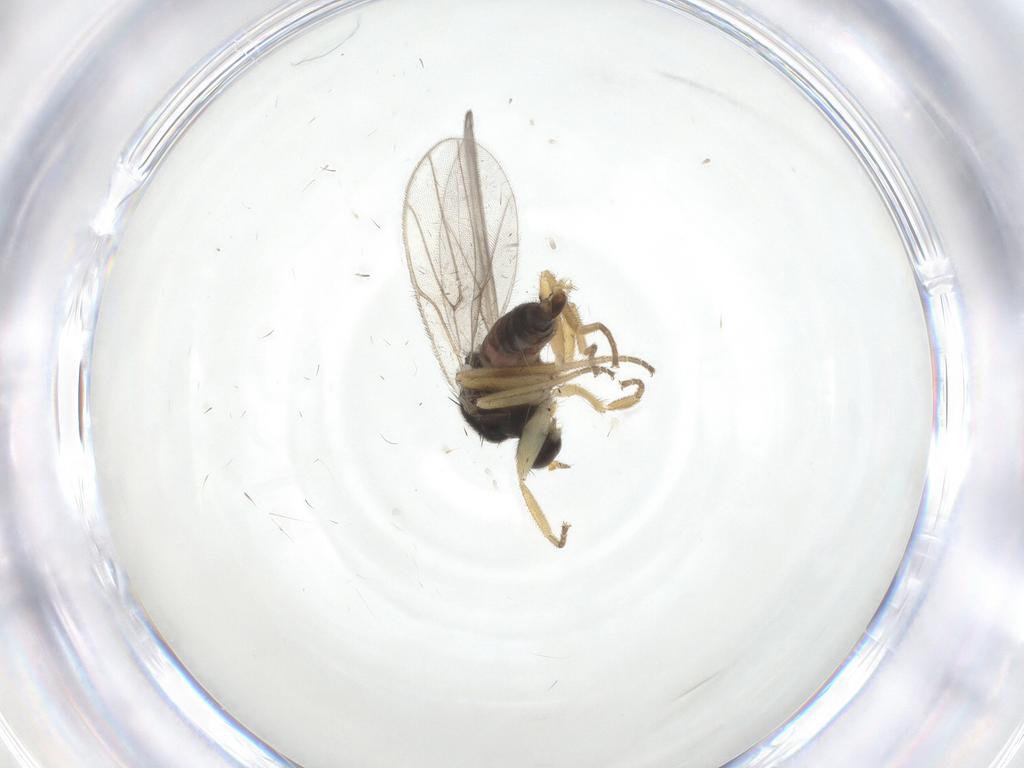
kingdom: Animalia
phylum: Arthropoda
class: Insecta
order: Diptera
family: Hybotidae
